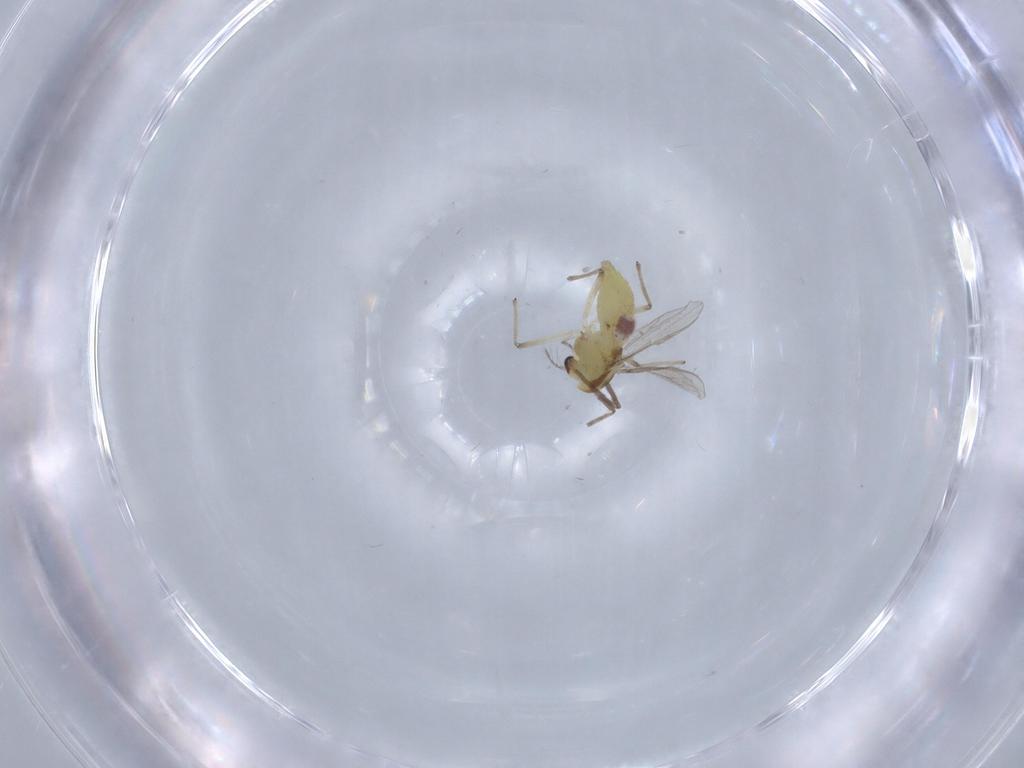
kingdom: Animalia
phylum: Arthropoda
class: Insecta
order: Diptera
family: Chironomidae
